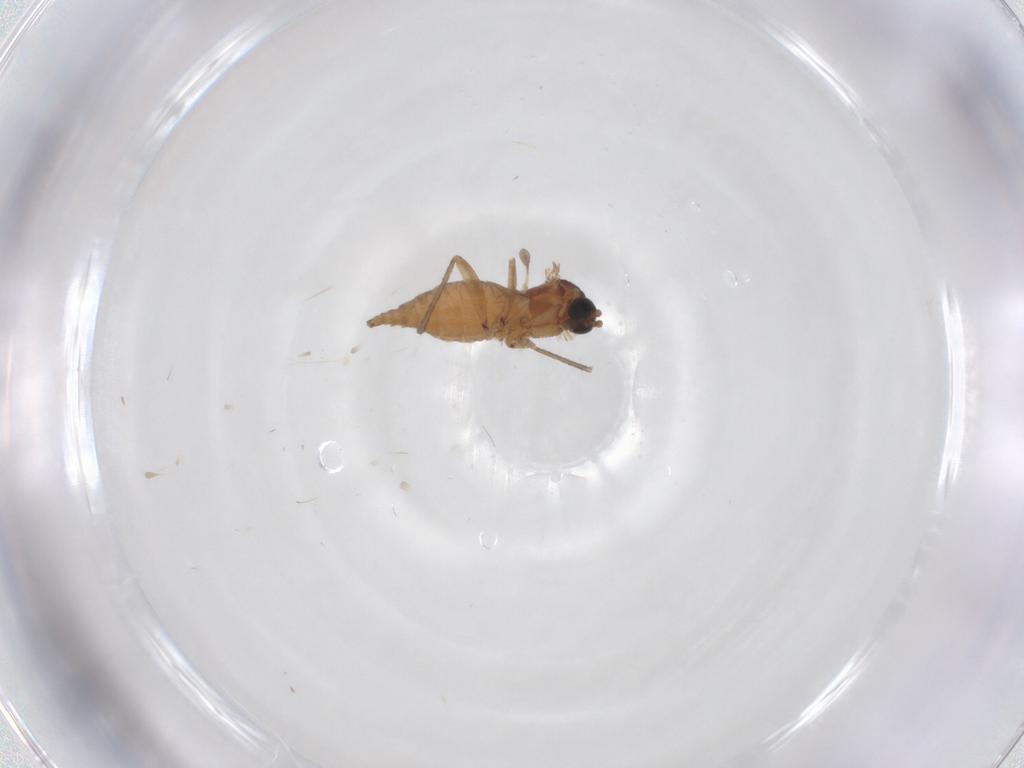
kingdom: Animalia
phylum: Arthropoda
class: Insecta
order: Diptera
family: Sciaridae
